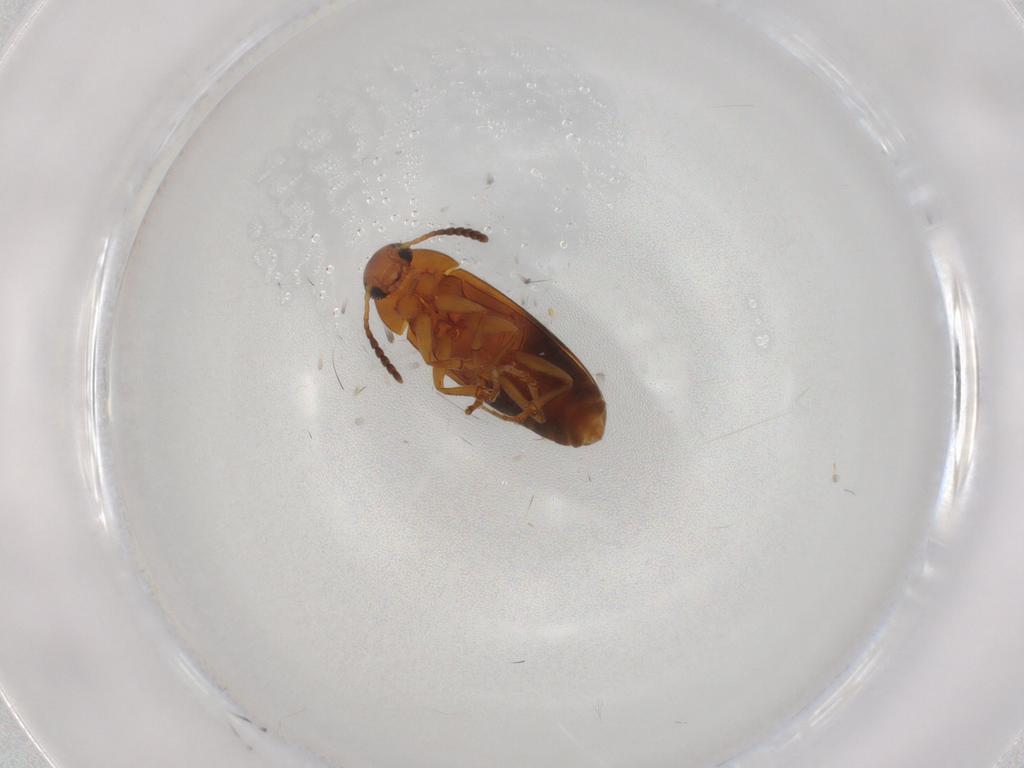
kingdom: Animalia
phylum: Arthropoda
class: Insecta
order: Coleoptera
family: Scraptiidae
